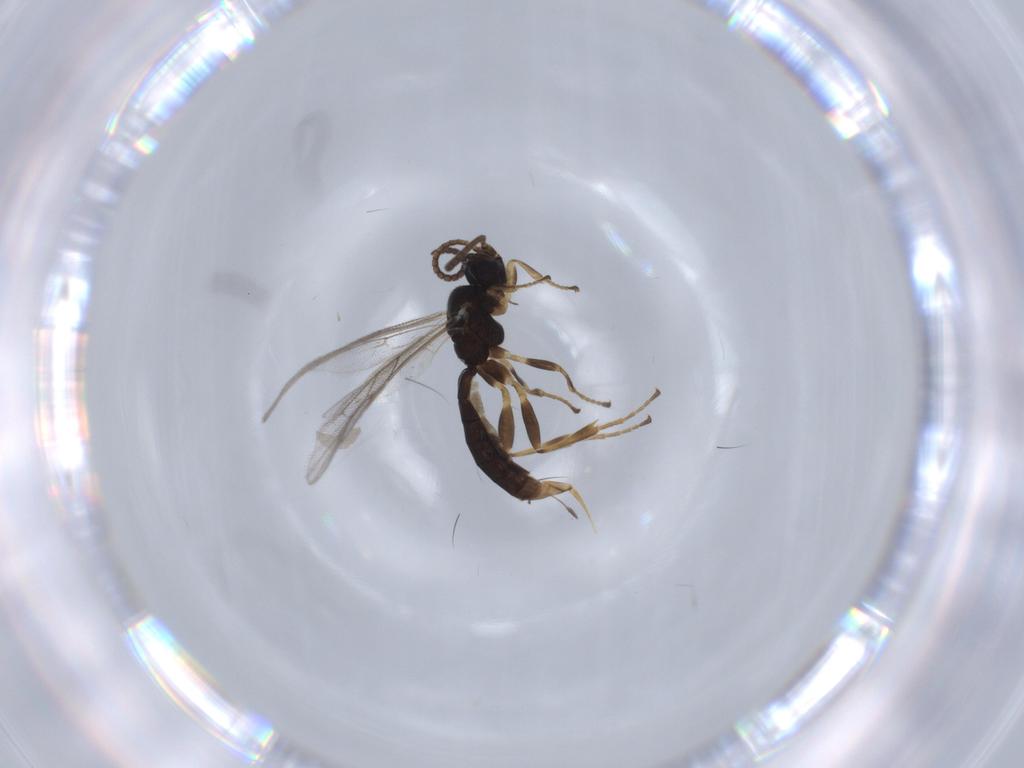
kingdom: Animalia
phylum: Arthropoda
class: Insecta
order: Hymenoptera
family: Ichneumonidae
